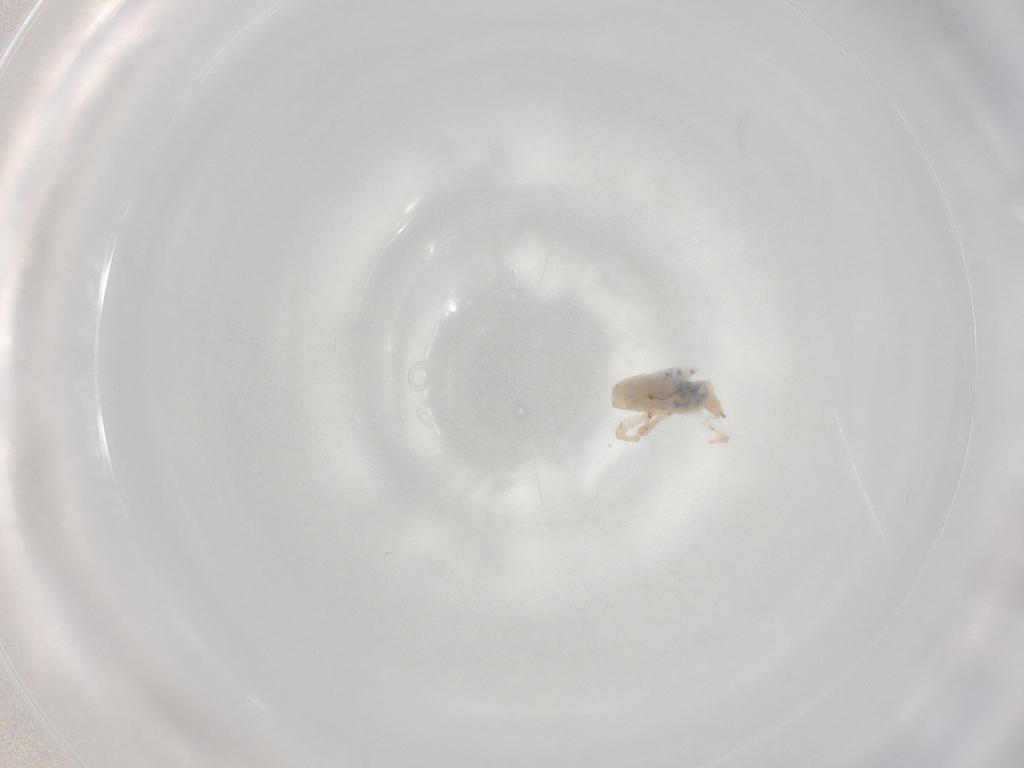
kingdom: Animalia
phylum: Arthropoda
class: Arachnida
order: Trombidiformes
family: Bdellidae
